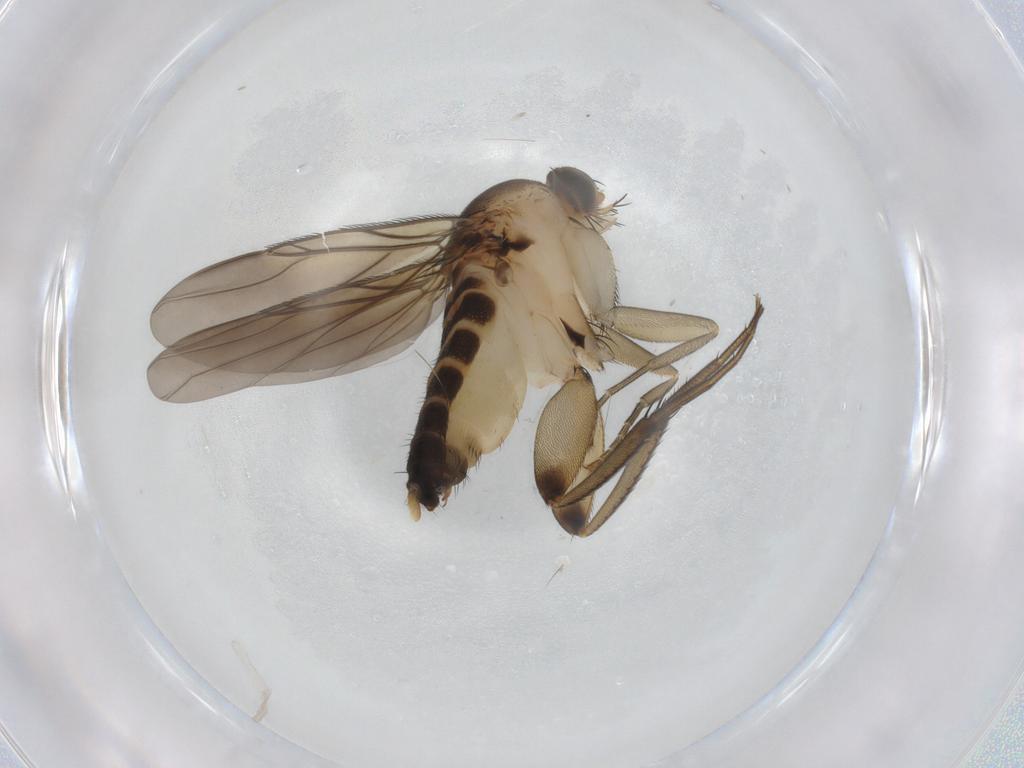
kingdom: Animalia
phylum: Arthropoda
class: Insecta
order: Diptera
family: Phoridae
